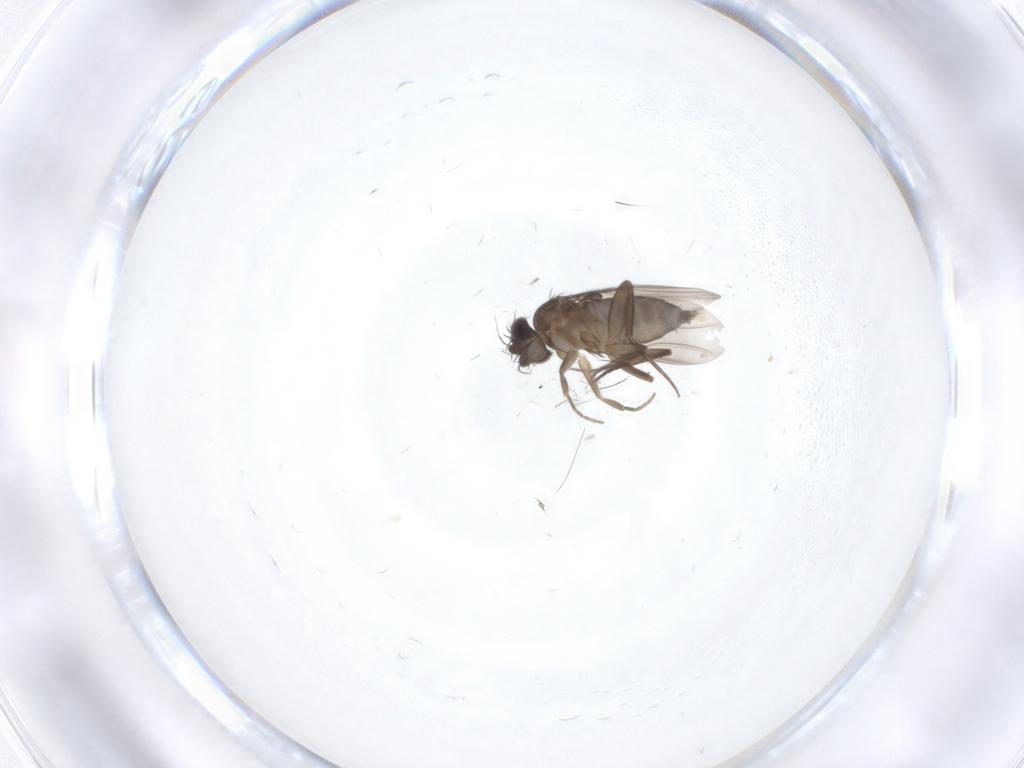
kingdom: Animalia
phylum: Arthropoda
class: Insecta
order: Diptera
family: Phoridae
